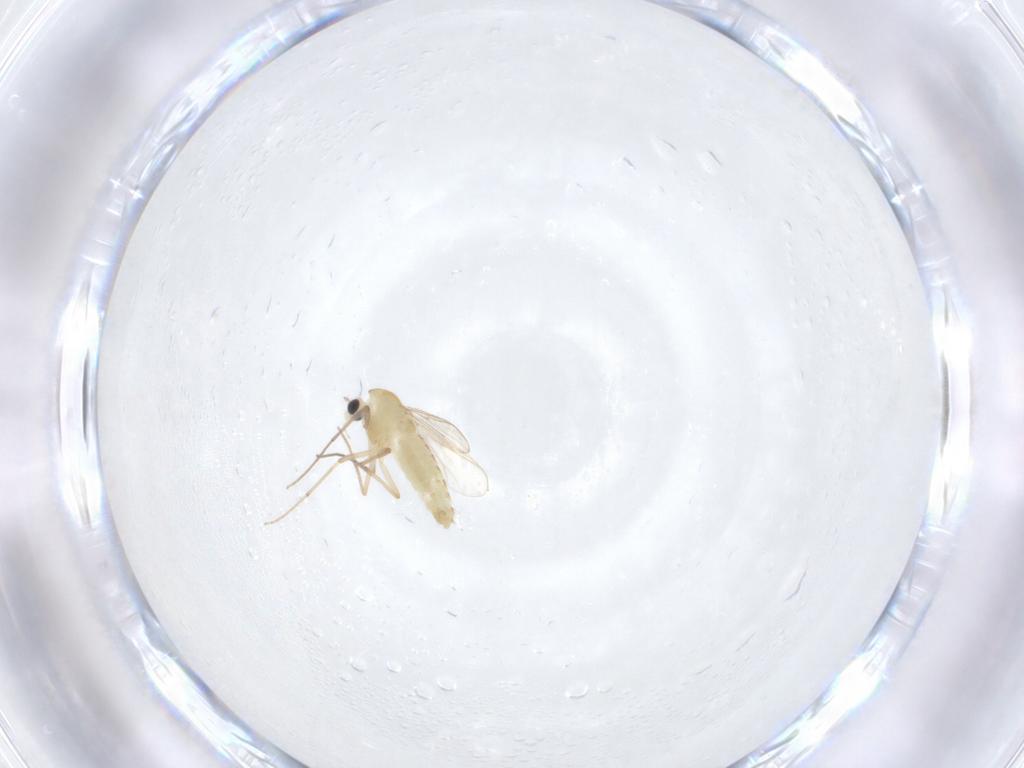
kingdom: Animalia
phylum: Arthropoda
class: Insecta
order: Diptera
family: Chironomidae
